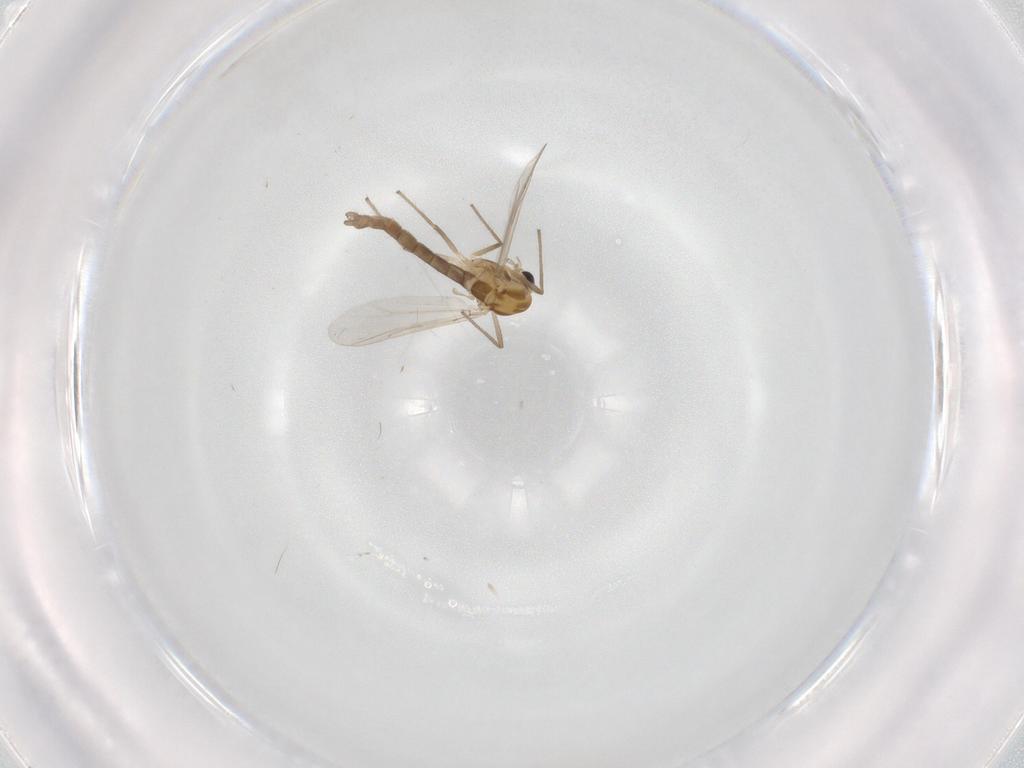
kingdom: Animalia
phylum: Arthropoda
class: Insecta
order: Diptera
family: Chironomidae
